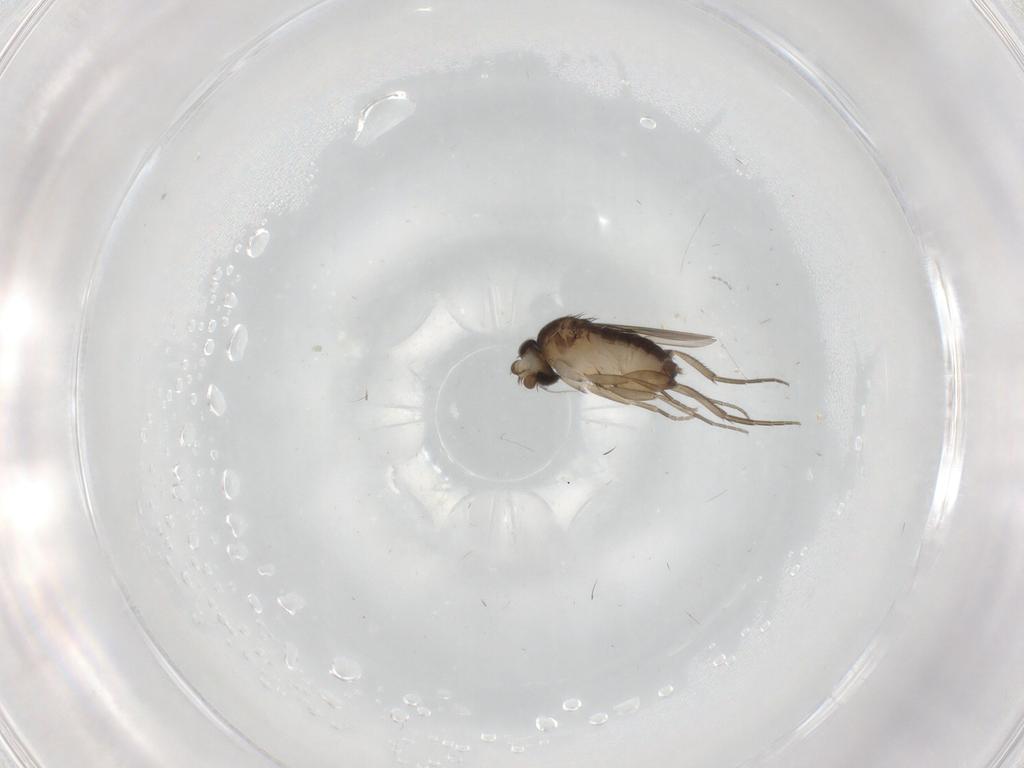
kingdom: Animalia
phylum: Arthropoda
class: Insecta
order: Diptera
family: Phoridae
